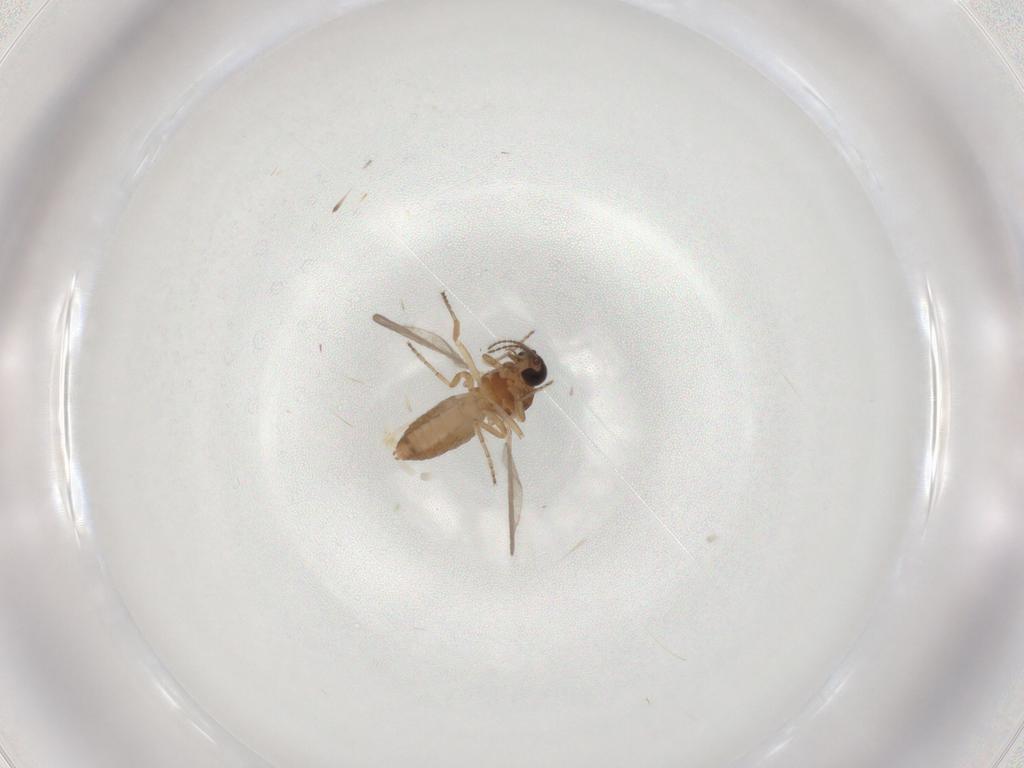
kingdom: Animalia
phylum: Arthropoda
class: Insecta
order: Diptera
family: Ceratopogonidae
